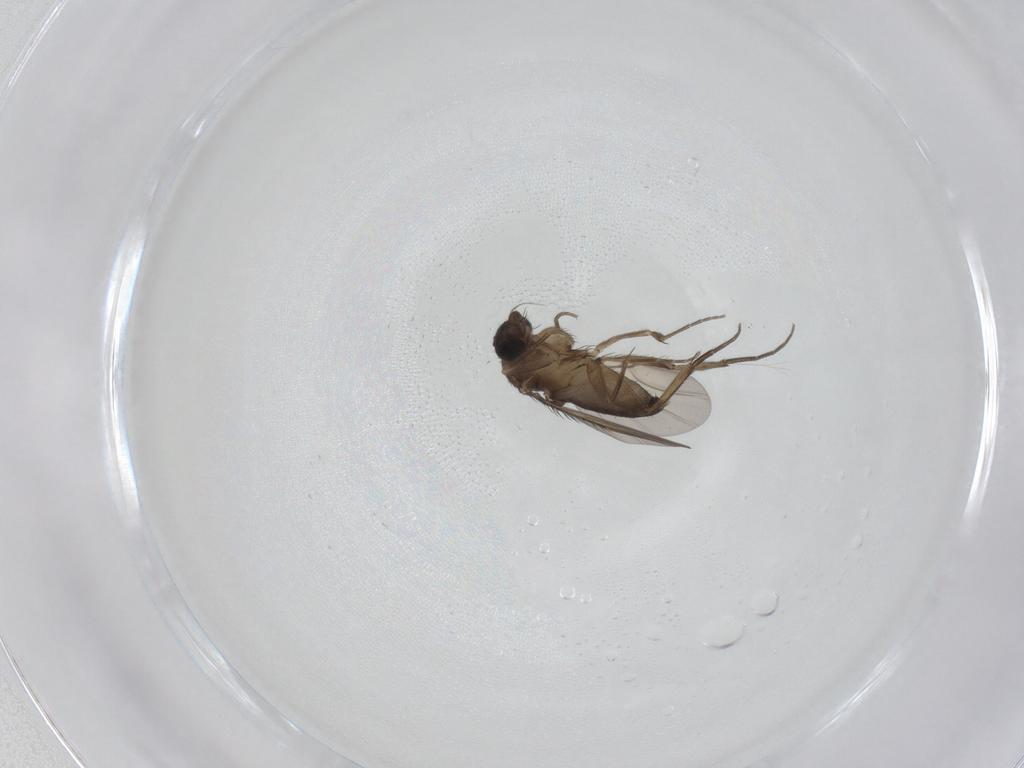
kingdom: Animalia
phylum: Arthropoda
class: Insecta
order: Diptera
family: Phoridae
